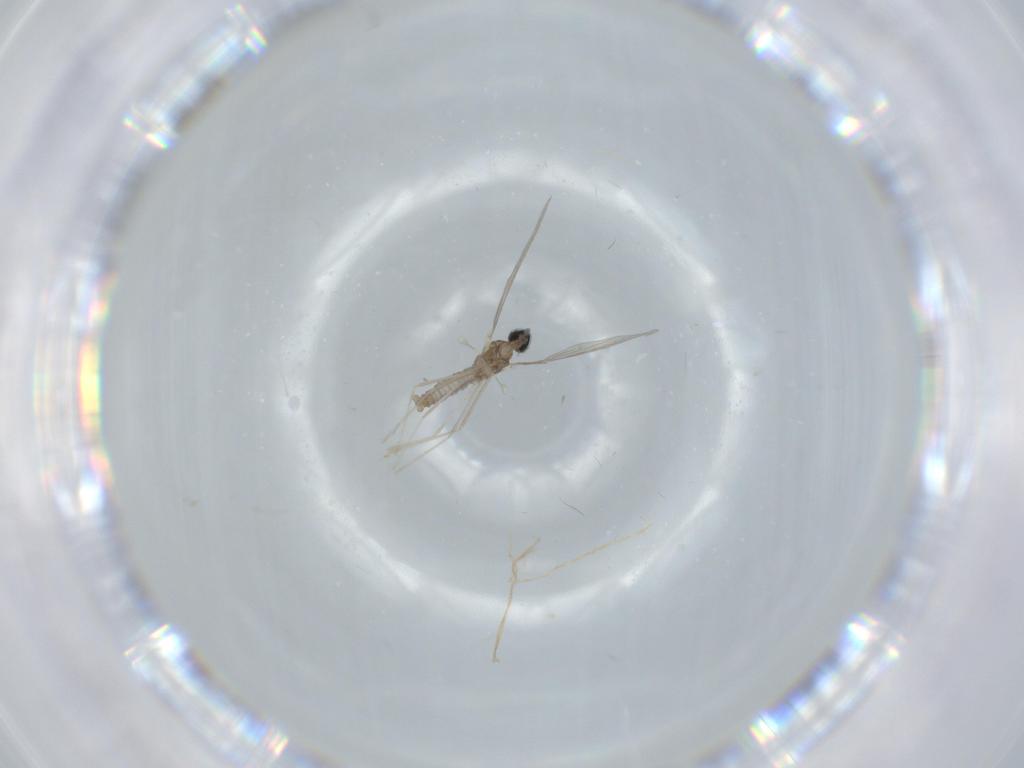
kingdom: Animalia
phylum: Arthropoda
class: Insecta
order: Diptera
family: Cecidomyiidae
